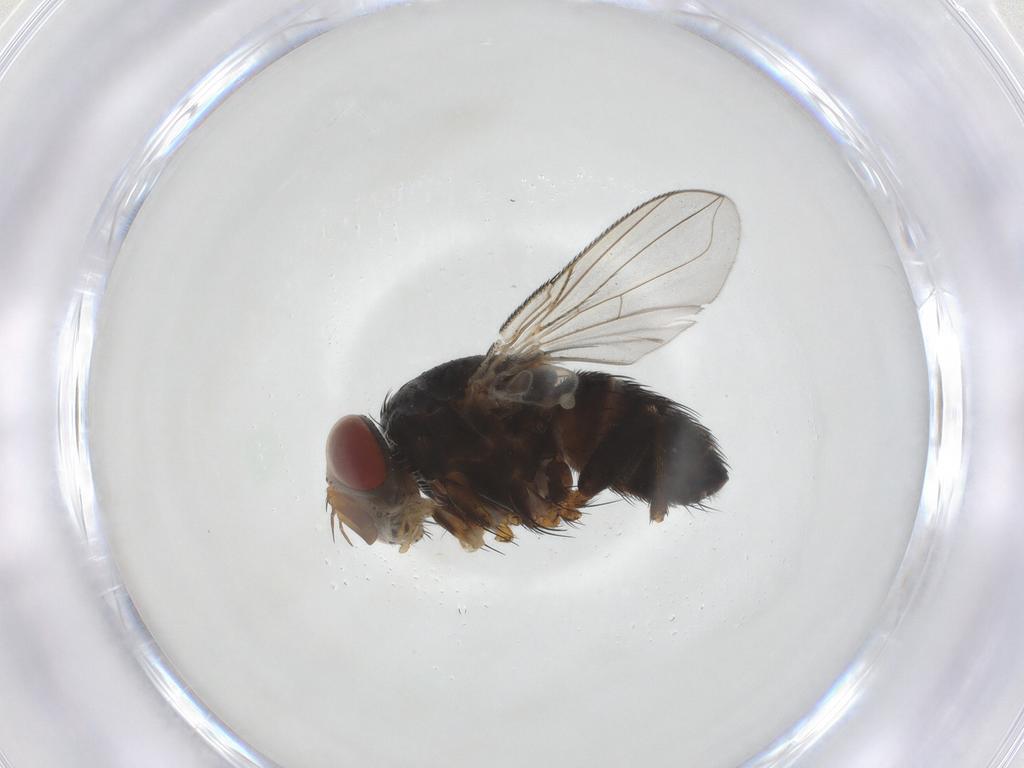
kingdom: Animalia
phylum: Arthropoda
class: Insecta
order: Diptera
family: Tachinidae
